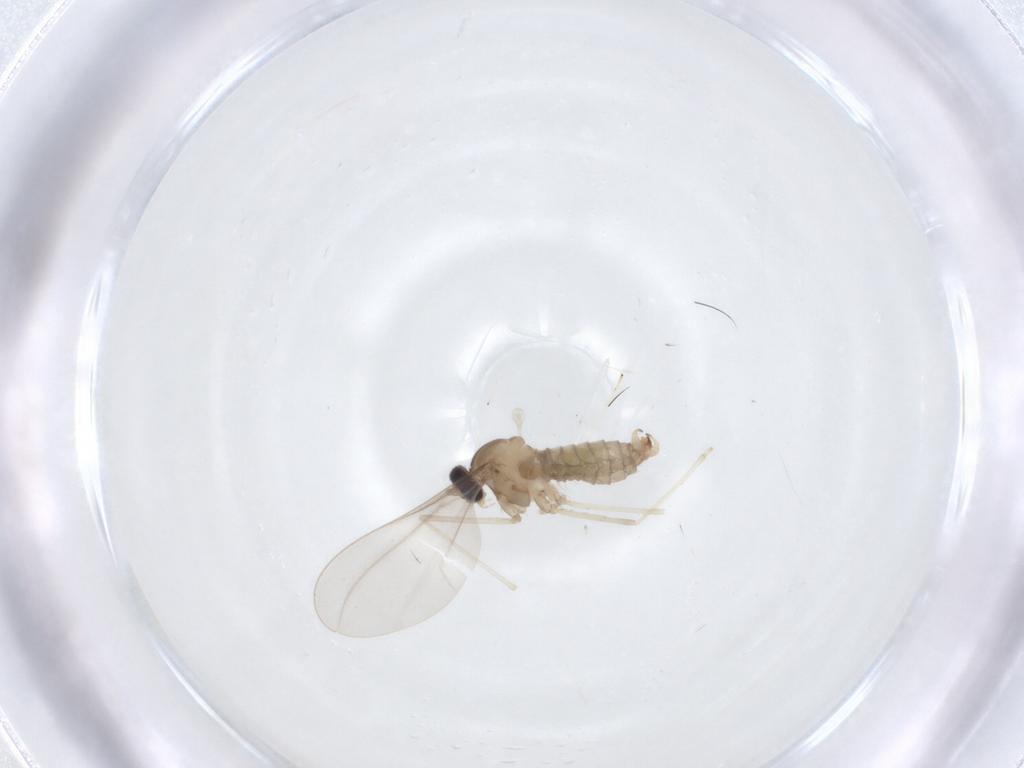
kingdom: Animalia
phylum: Arthropoda
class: Insecta
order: Diptera
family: Cecidomyiidae
